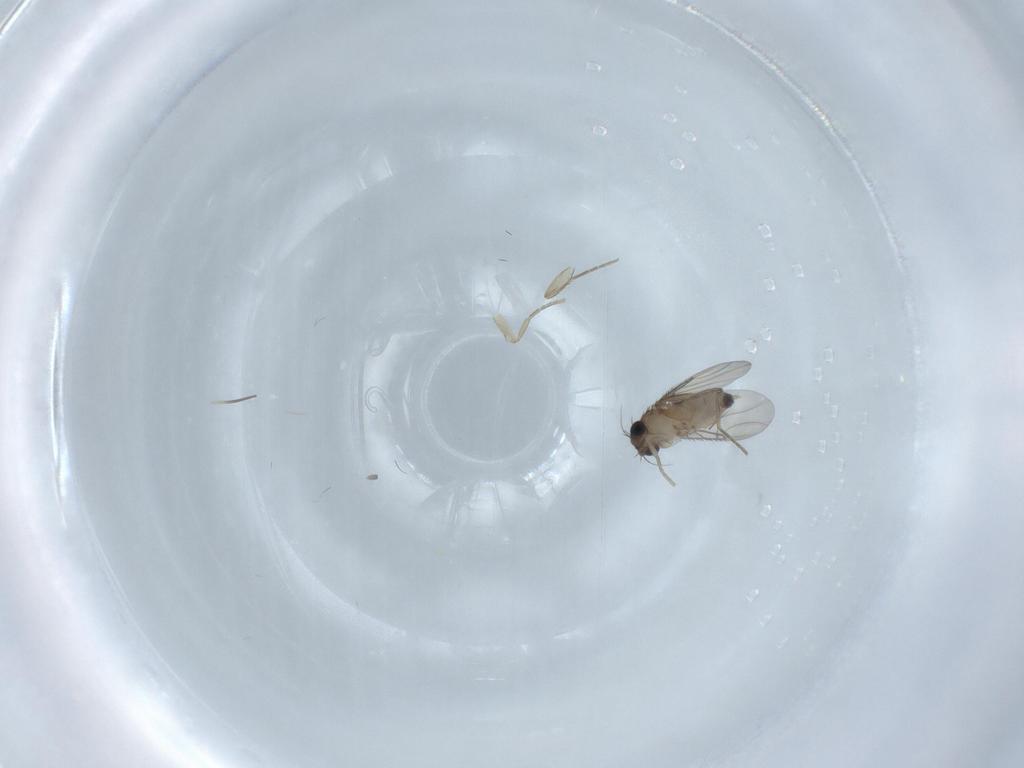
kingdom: Animalia
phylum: Arthropoda
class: Insecta
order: Diptera
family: Phoridae
